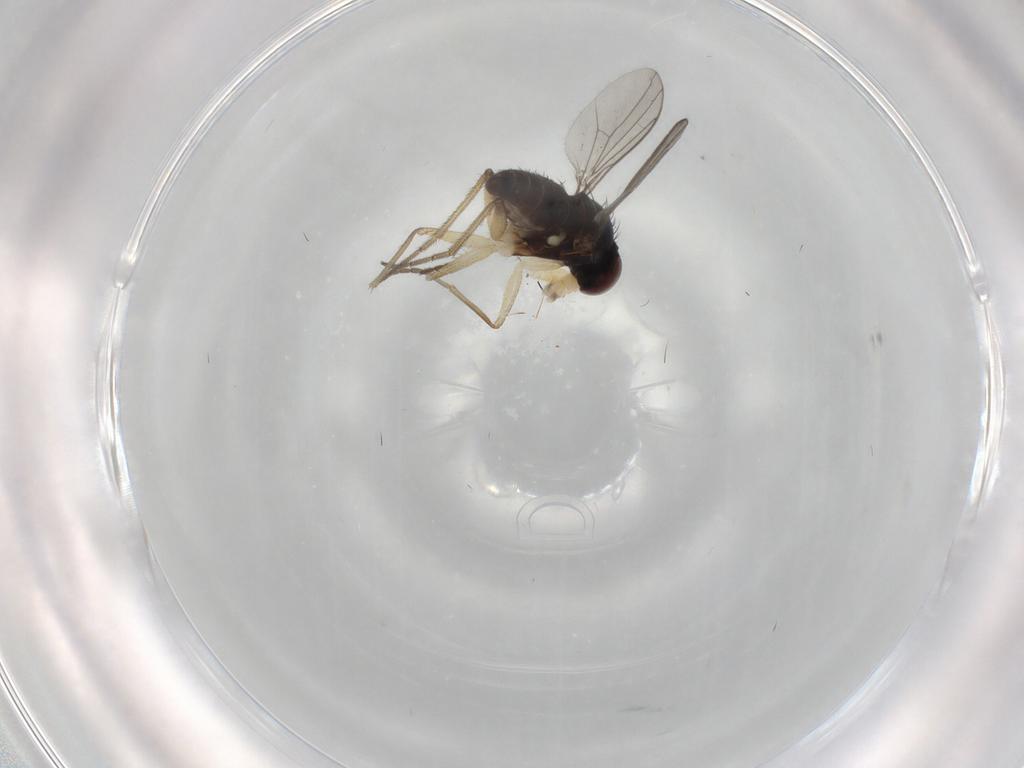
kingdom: Animalia
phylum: Arthropoda
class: Insecta
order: Diptera
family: Dolichopodidae
